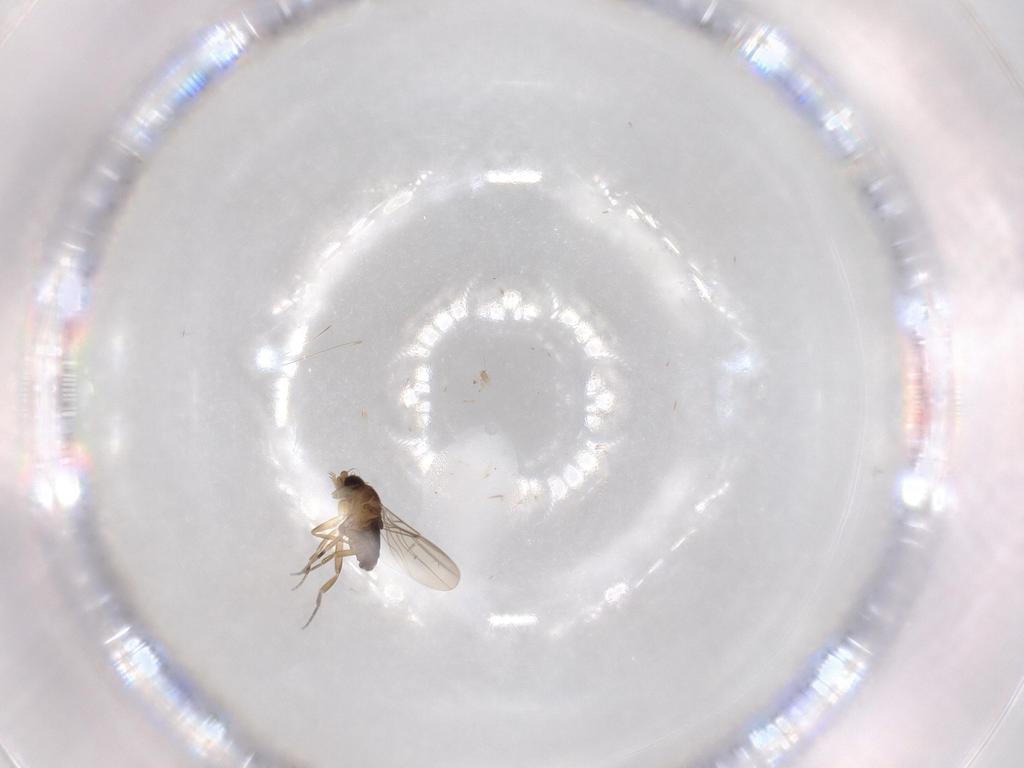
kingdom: Animalia
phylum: Arthropoda
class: Insecta
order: Diptera
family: Phoridae
